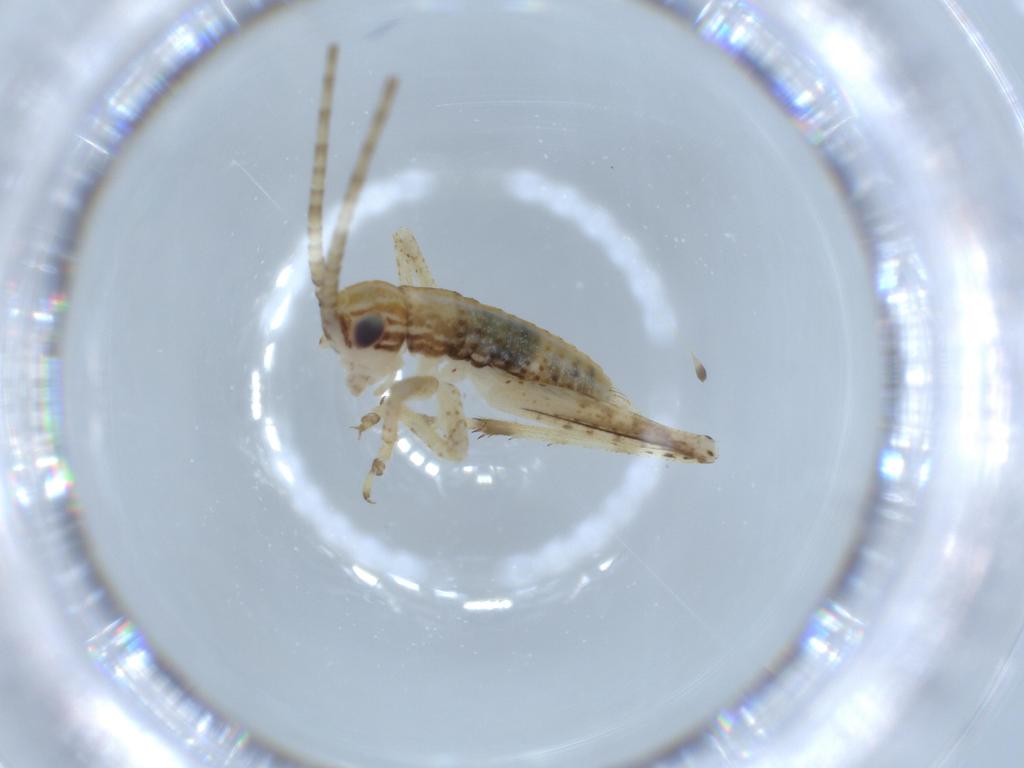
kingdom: Animalia
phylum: Arthropoda
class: Insecta
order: Orthoptera
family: Gryllidae
